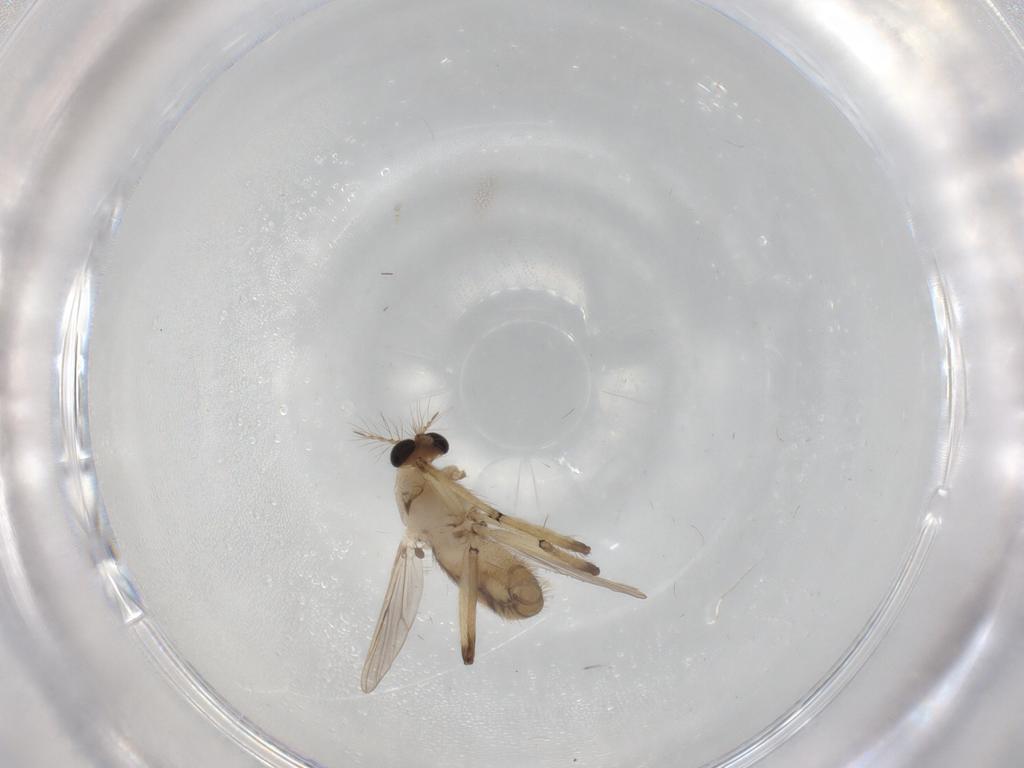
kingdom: Animalia
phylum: Arthropoda
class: Insecta
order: Diptera
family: Chironomidae
